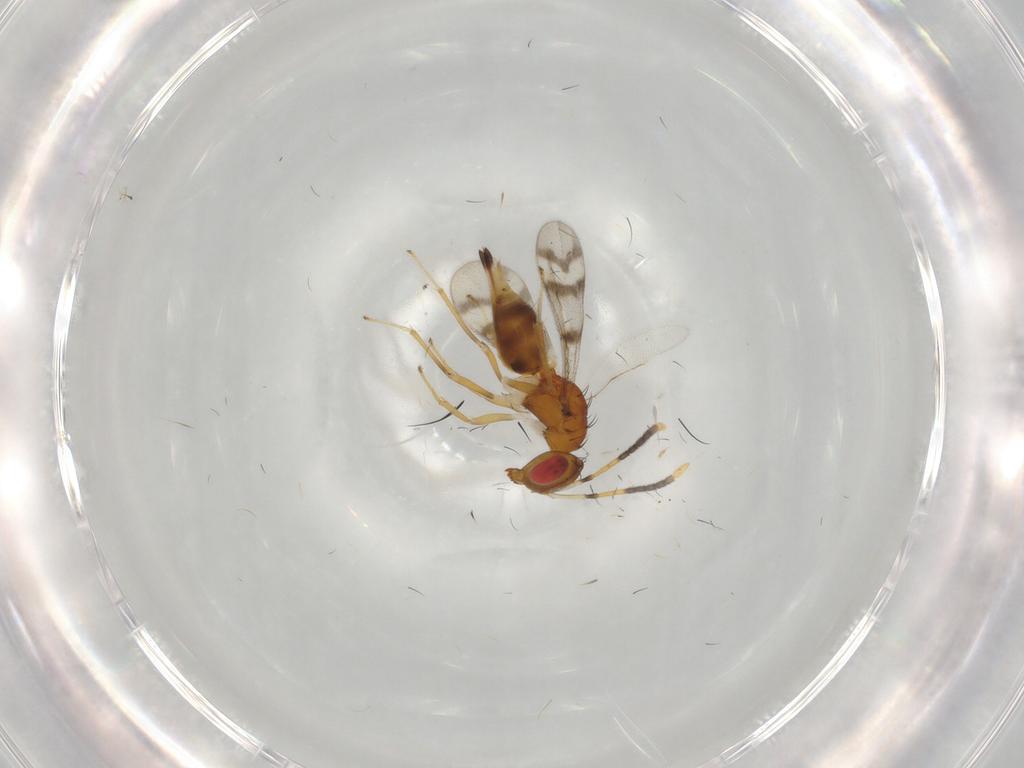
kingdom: Animalia
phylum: Arthropoda
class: Insecta
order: Hymenoptera
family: Diparidae
